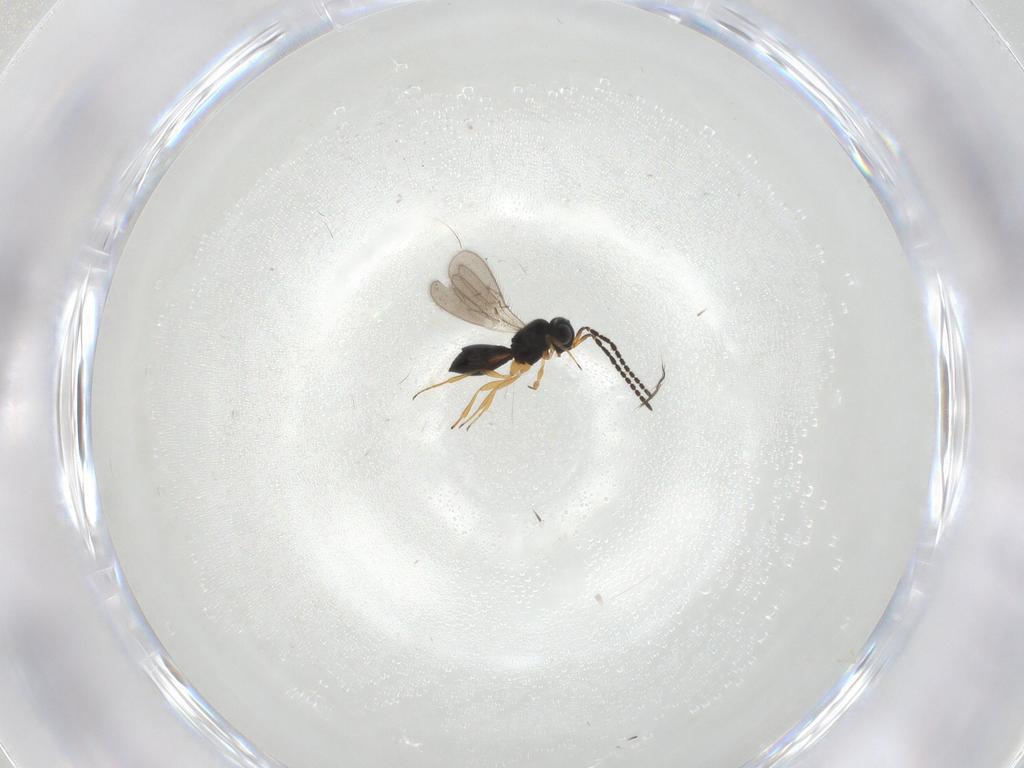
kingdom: Animalia
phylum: Arthropoda
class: Insecta
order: Hymenoptera
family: Scelionidae
